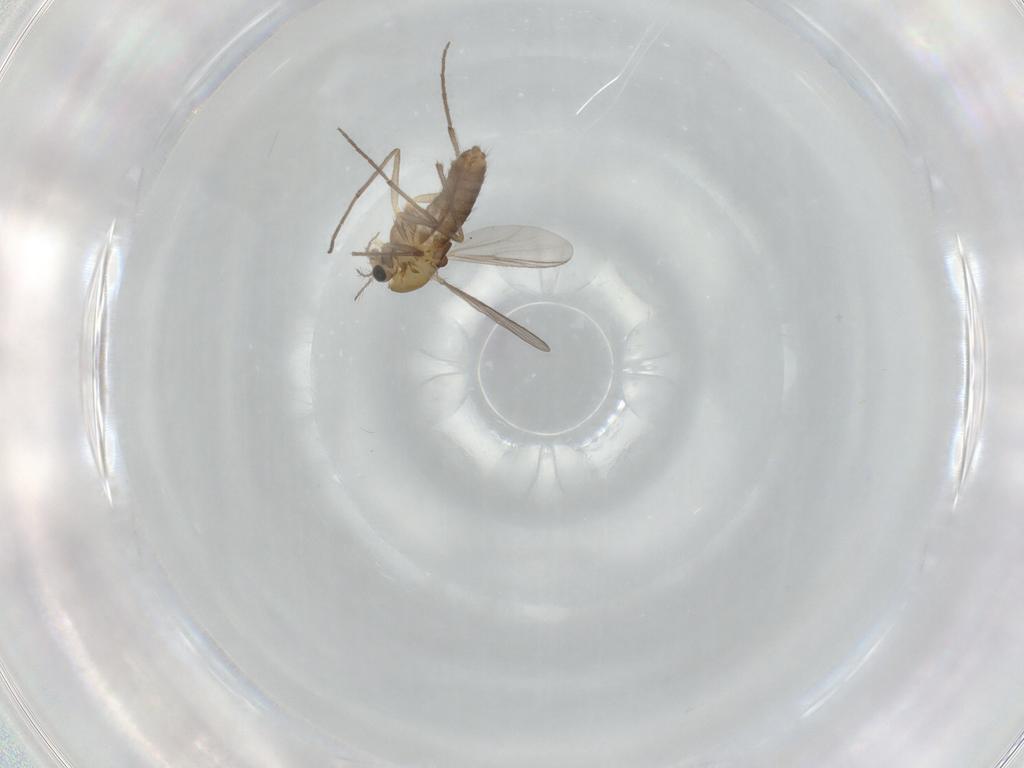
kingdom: Animalia
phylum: Arthropoda
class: Insecta
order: Diptera
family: Chironomidae
